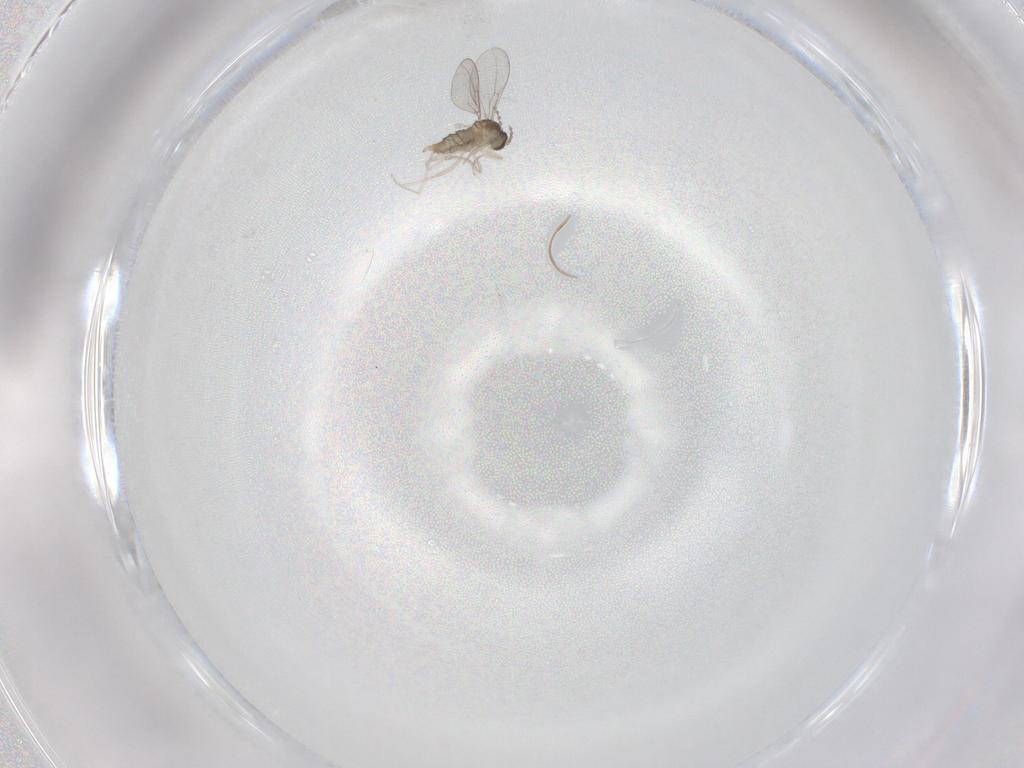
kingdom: Animalia
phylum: Arthropoda
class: Insecta
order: Diptera
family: Cecidomyiidae
